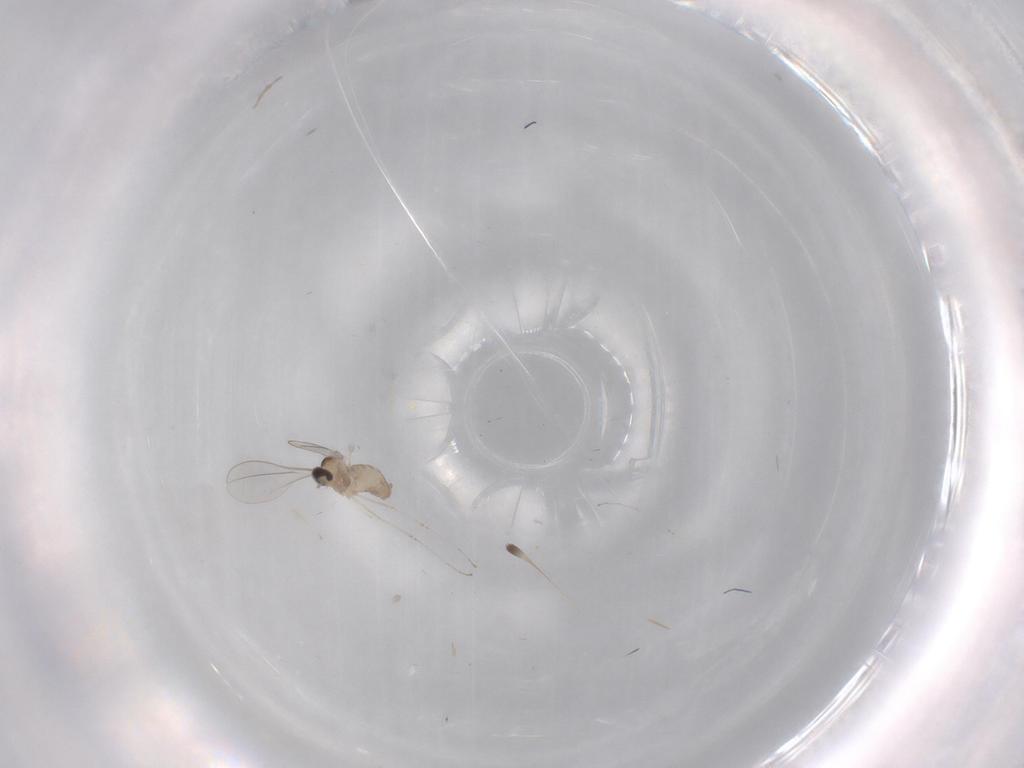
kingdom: Animalia
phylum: Arthropoda
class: Insecta
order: Diptera
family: Cecidomyiidae
